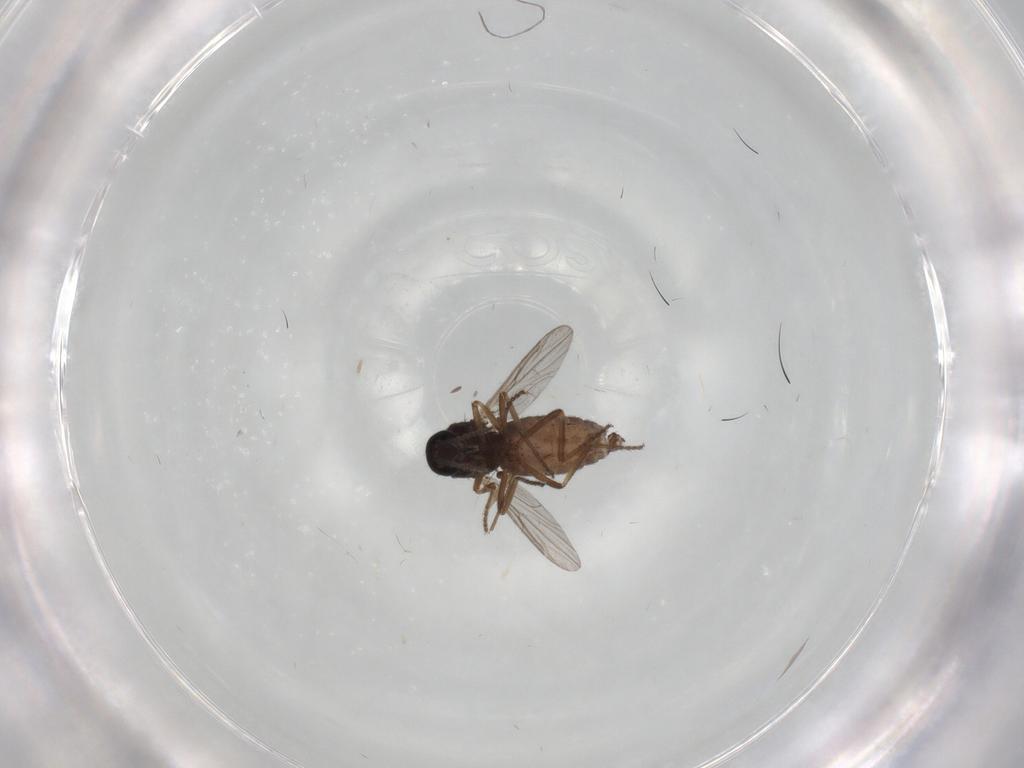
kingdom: Animalia
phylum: Arthropoda
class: Insecta
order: Diptera
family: Ceratopogonidae
